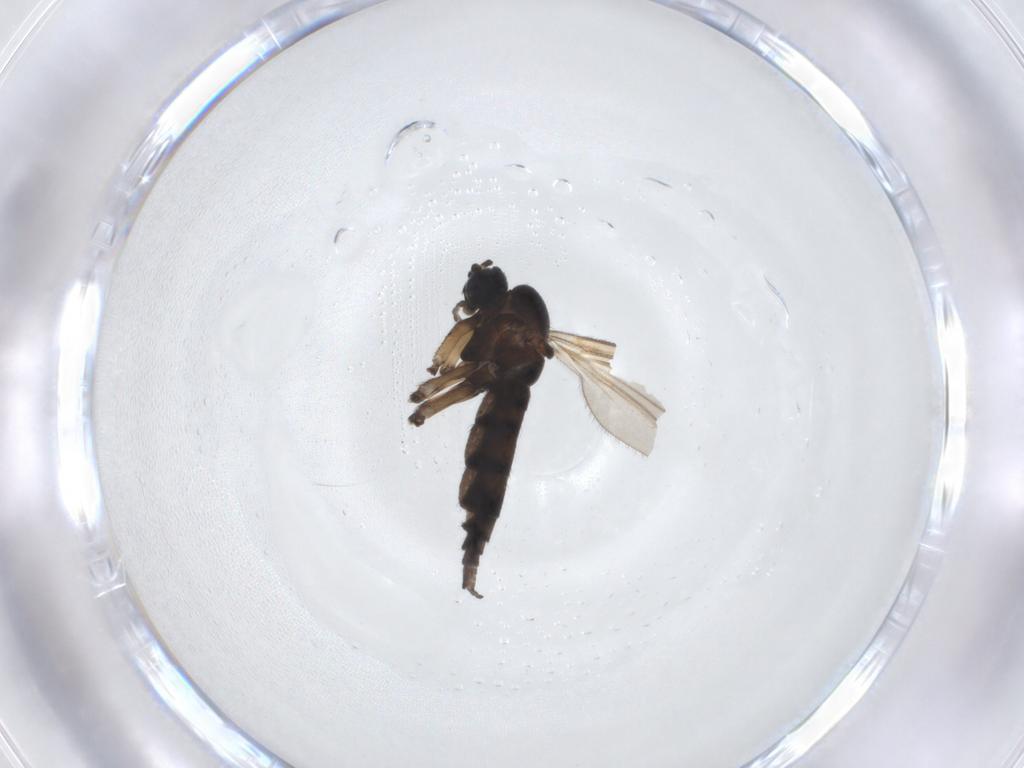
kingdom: Animalia
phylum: Arthropoda
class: Insecta
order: Diptera
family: Sciaridae
